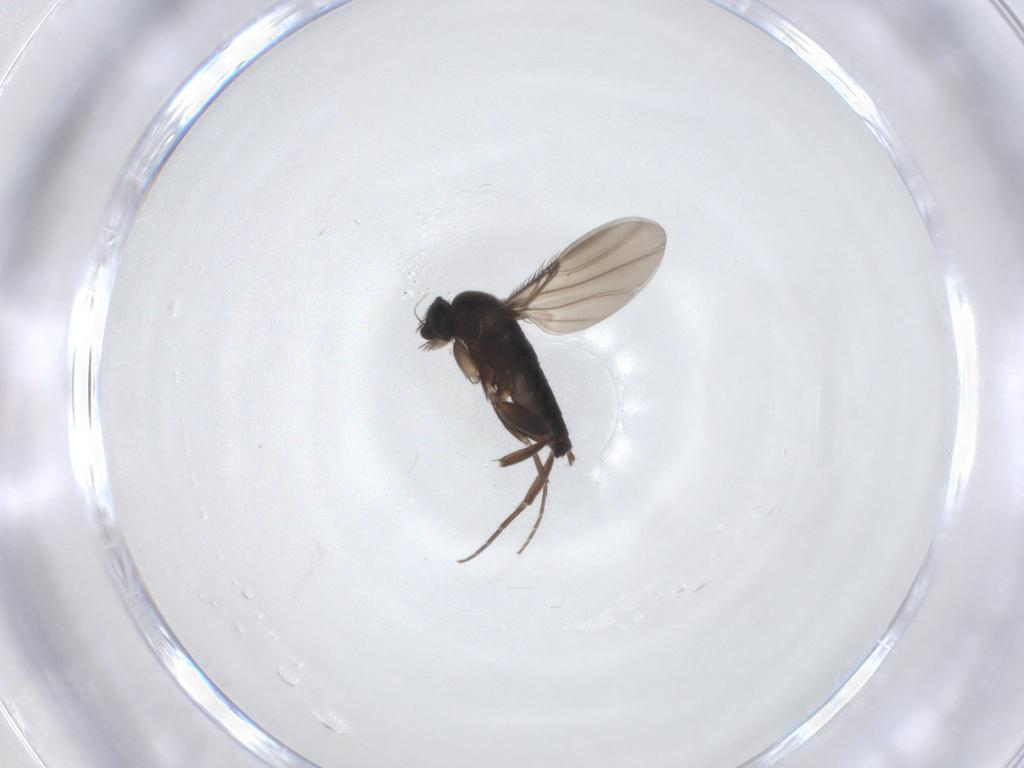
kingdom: Animalia
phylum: Arthropoda
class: Insecta
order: Diptera
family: Phoridae
